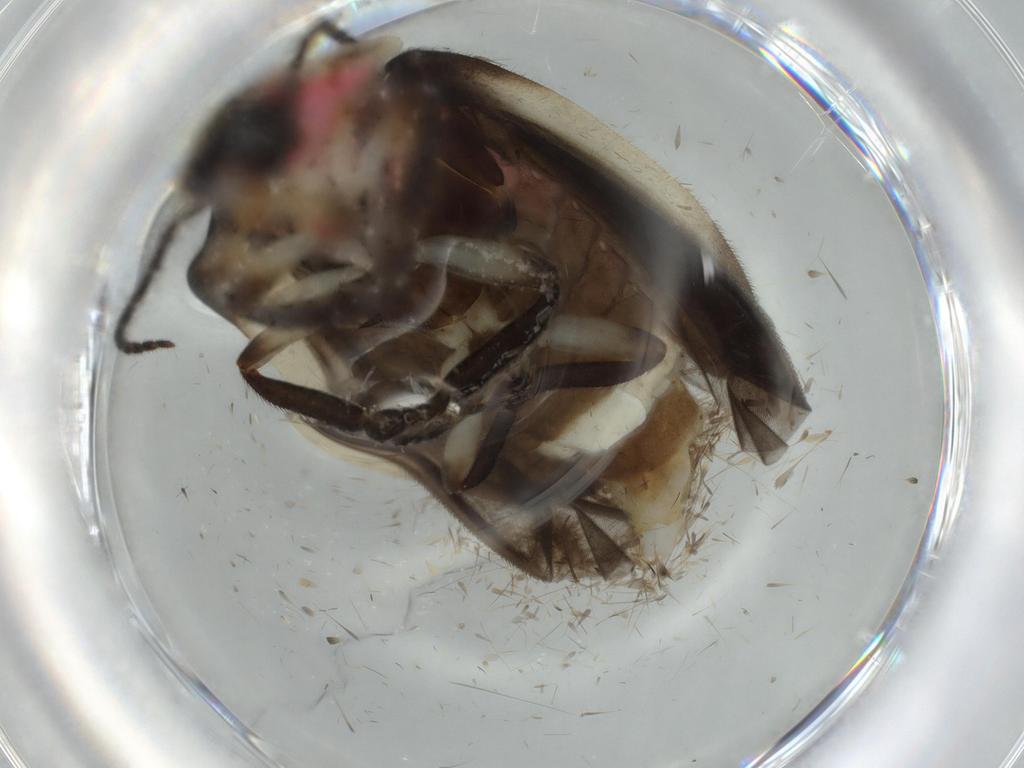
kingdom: Animalia
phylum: Arthropoda
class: Insecta
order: Coleoptera
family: Lampyridae
